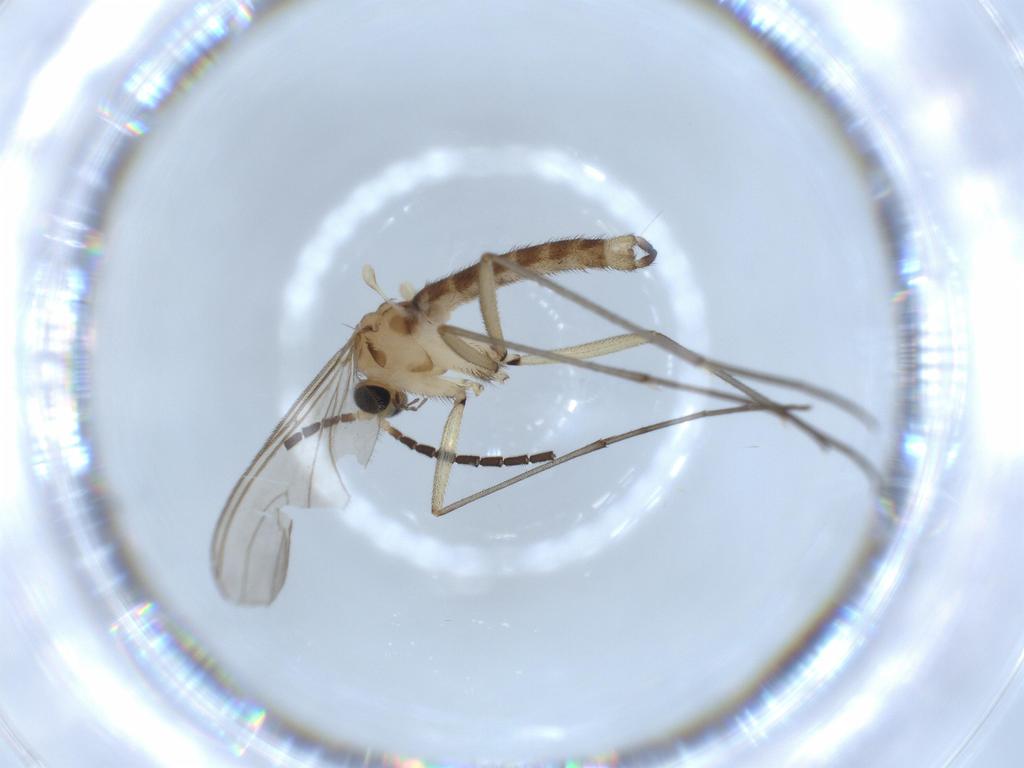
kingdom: Animalia
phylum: Arthropoda
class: Insecta
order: Diptera
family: Sciaridae
